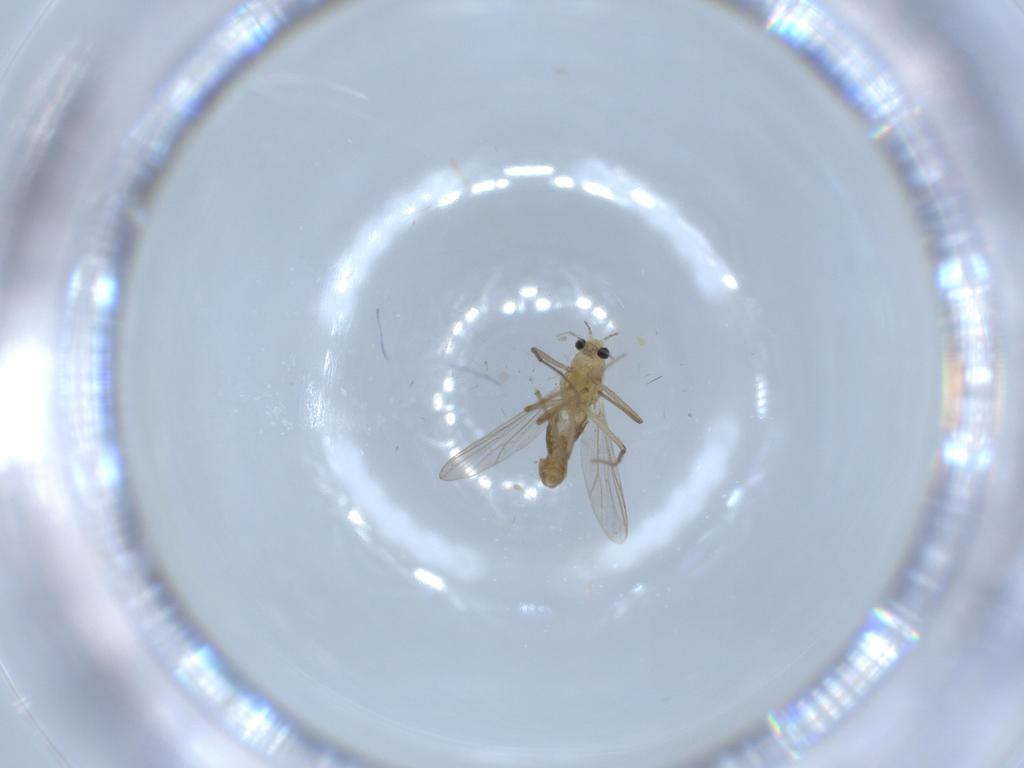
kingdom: Animalia
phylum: Arthropoda
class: Insecta
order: Diptera
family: Chironomidae
